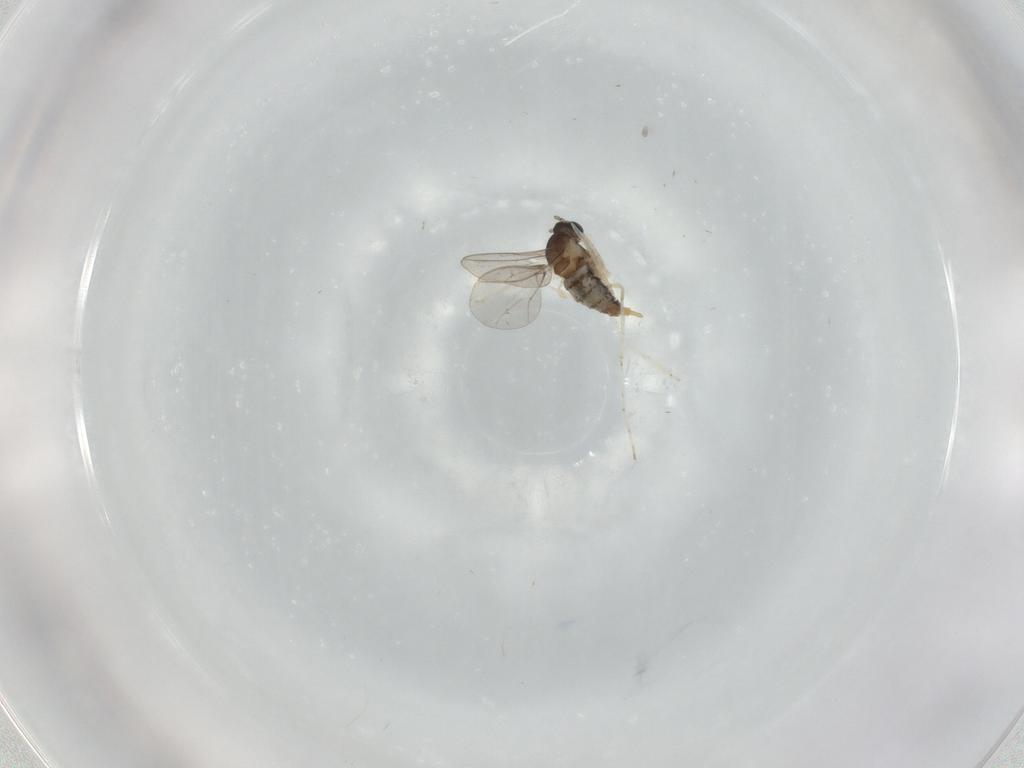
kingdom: Animalia
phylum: Arthropoda
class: Insecta
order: Diptera
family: Cecidomyiidae
